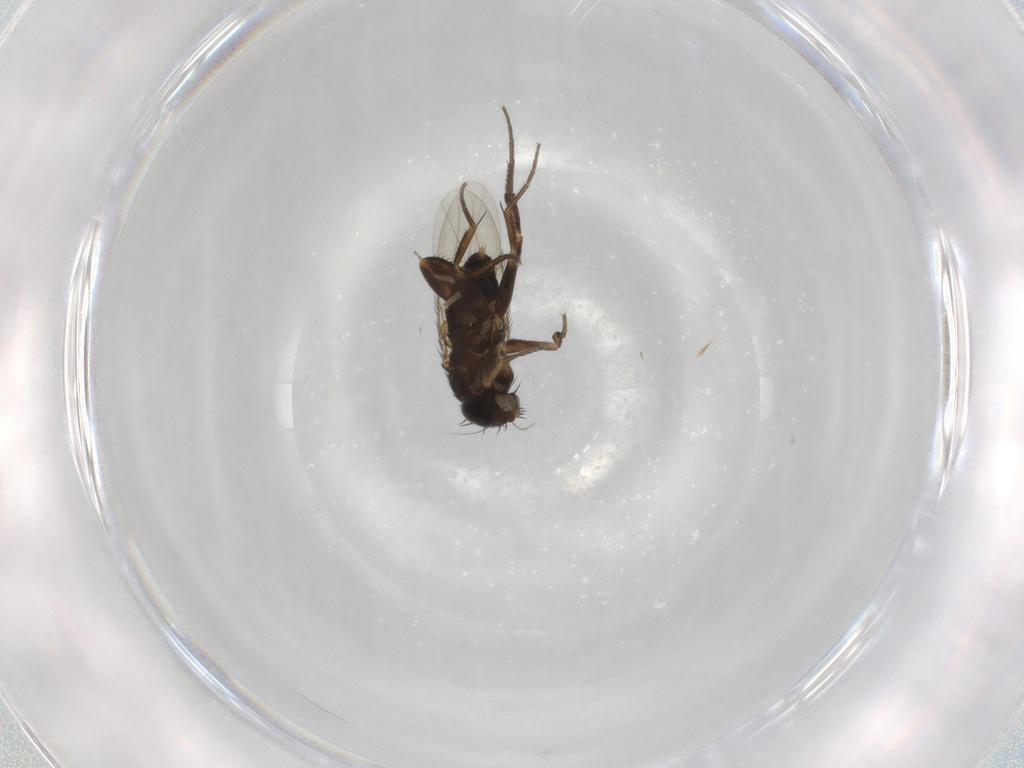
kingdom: Animalia
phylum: Arthropoda
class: Insecta
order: Diptera
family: Phoridae
